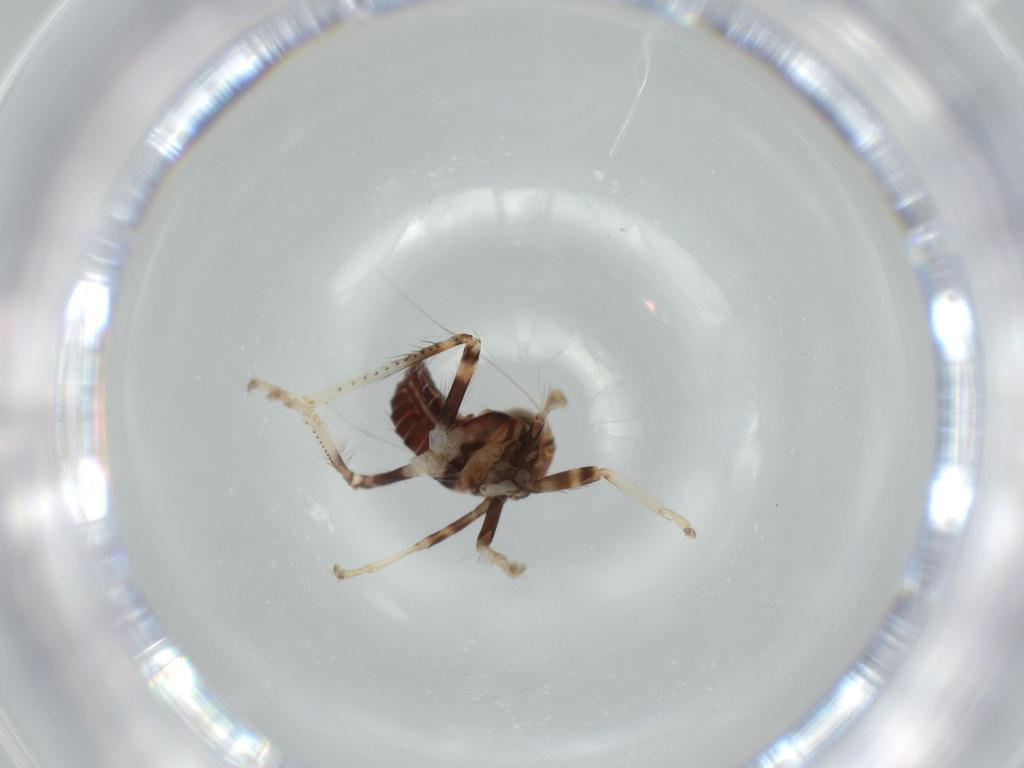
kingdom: Animalia
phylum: Arthropoda
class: Insecta
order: Hemiptera
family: Cicadellidae
